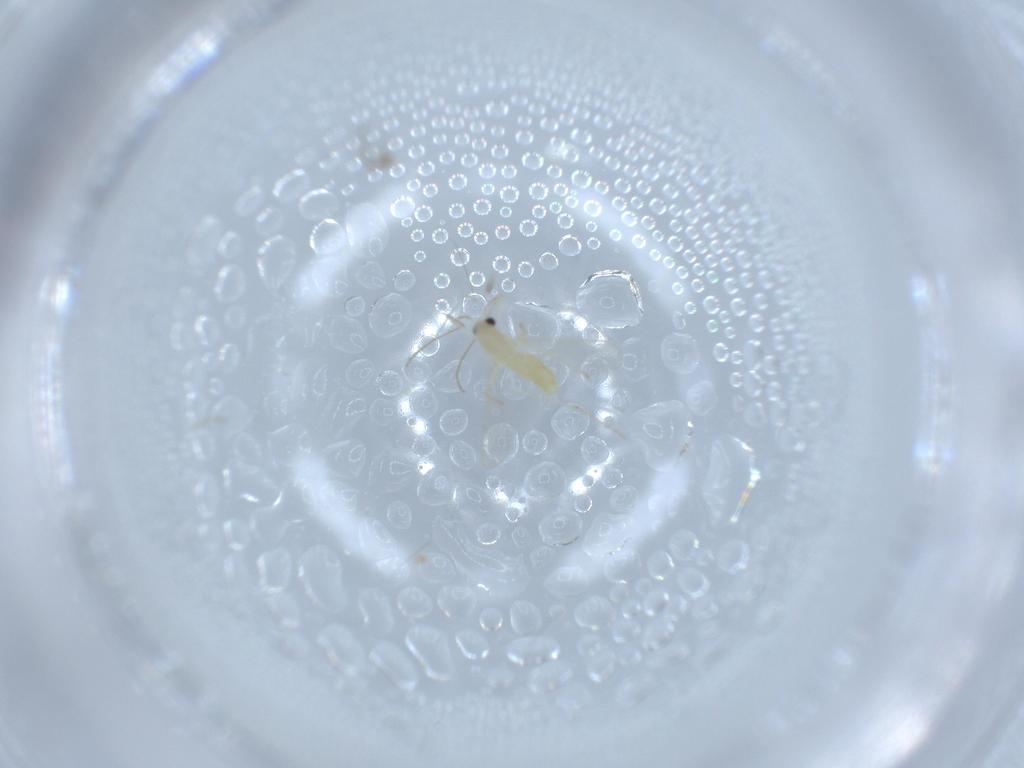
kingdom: Animalia
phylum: Arthropoda
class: Insecta
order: Diptera
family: Chironomidae
